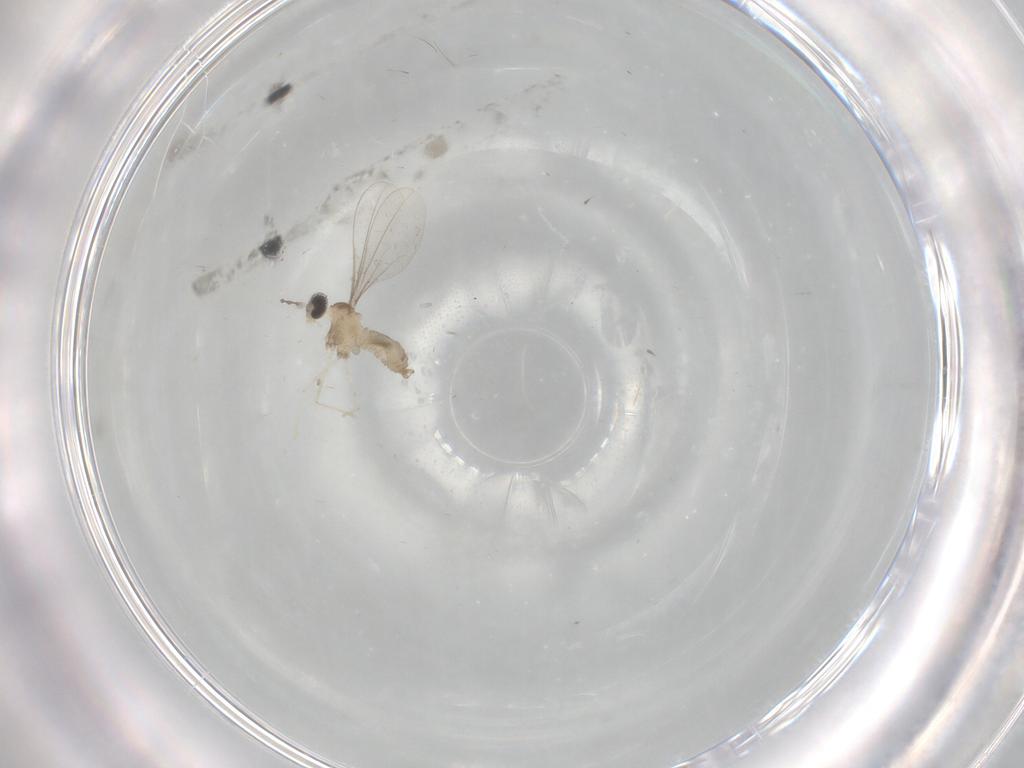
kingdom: Animalia
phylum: Arthropoda
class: Insecta
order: Diptera
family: Cecidomyiidae
